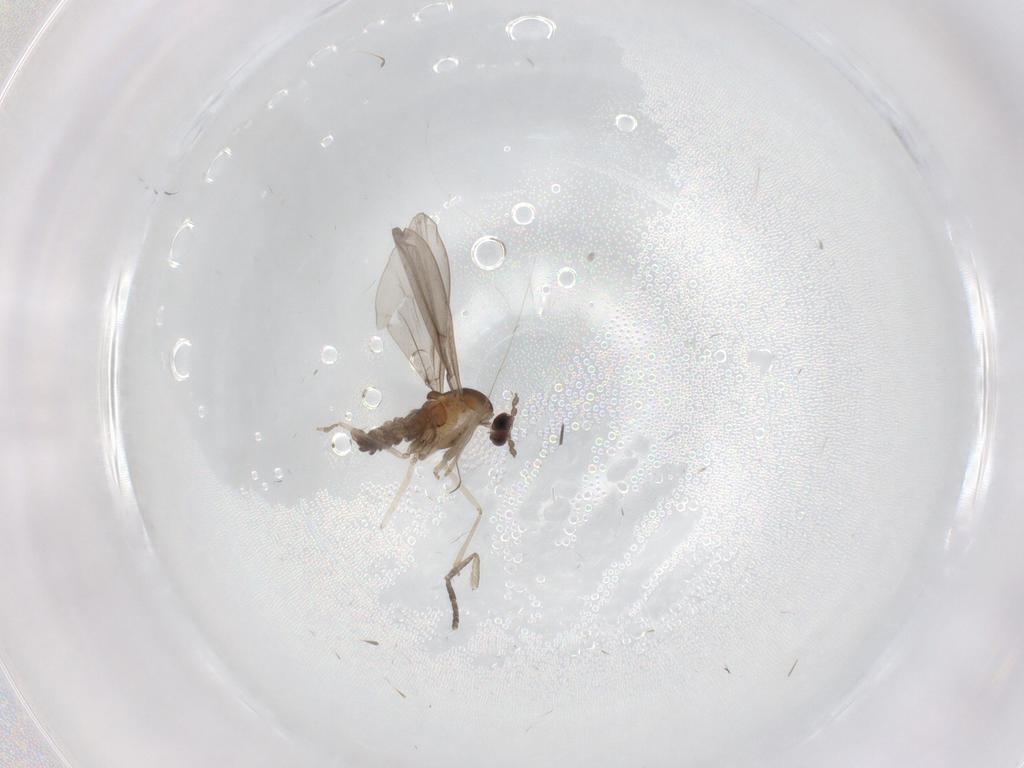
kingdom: Animalia
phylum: Arthropoda
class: Insecta
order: Diptera
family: Cecidomyiidae
